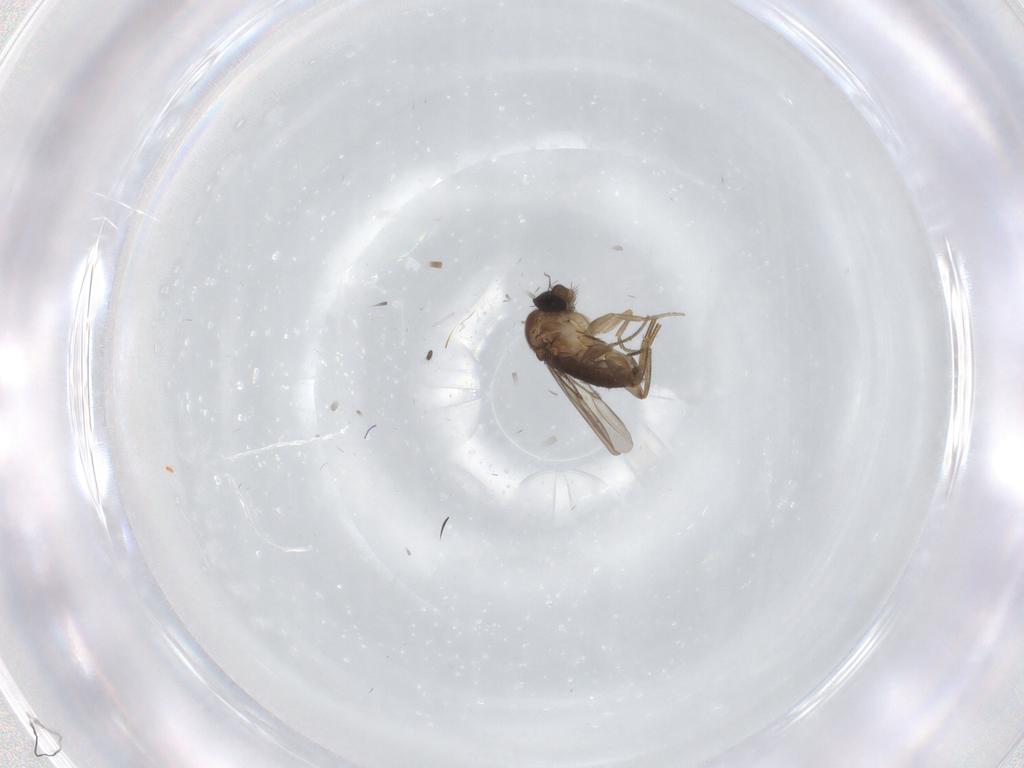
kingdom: Animalia
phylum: Arthropoda
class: Insecta
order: Diptera
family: Phoridae
